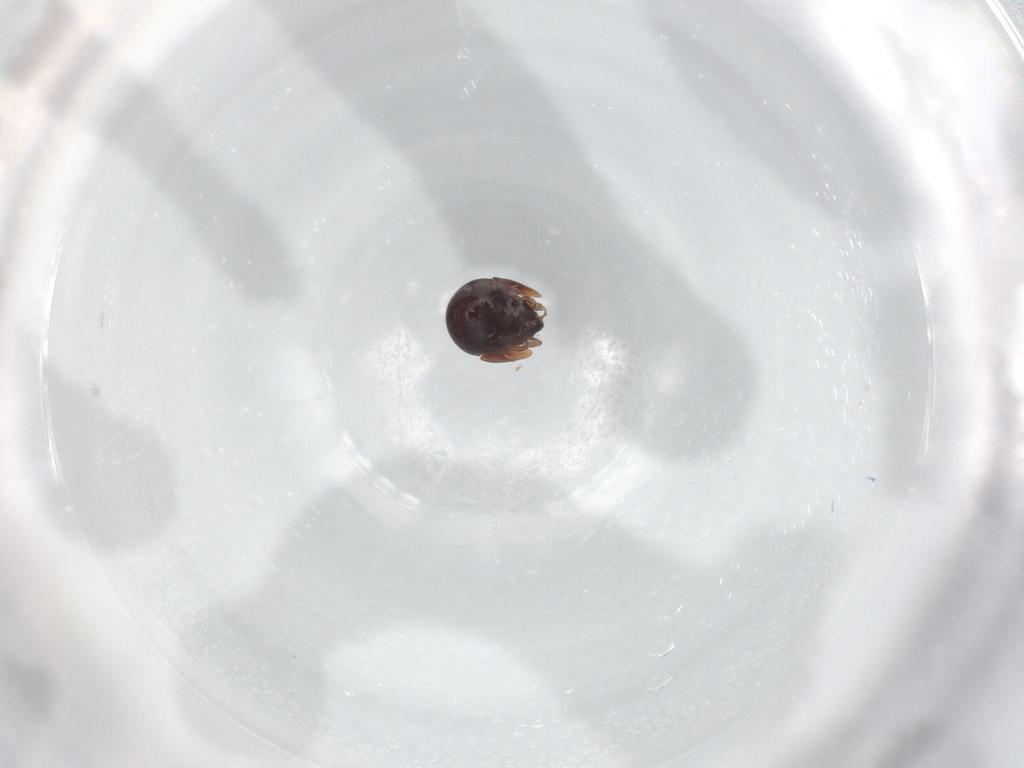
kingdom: Animalia
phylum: Arthropoda
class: Arachnida
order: Sarcoptiformes
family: Galumnidae
